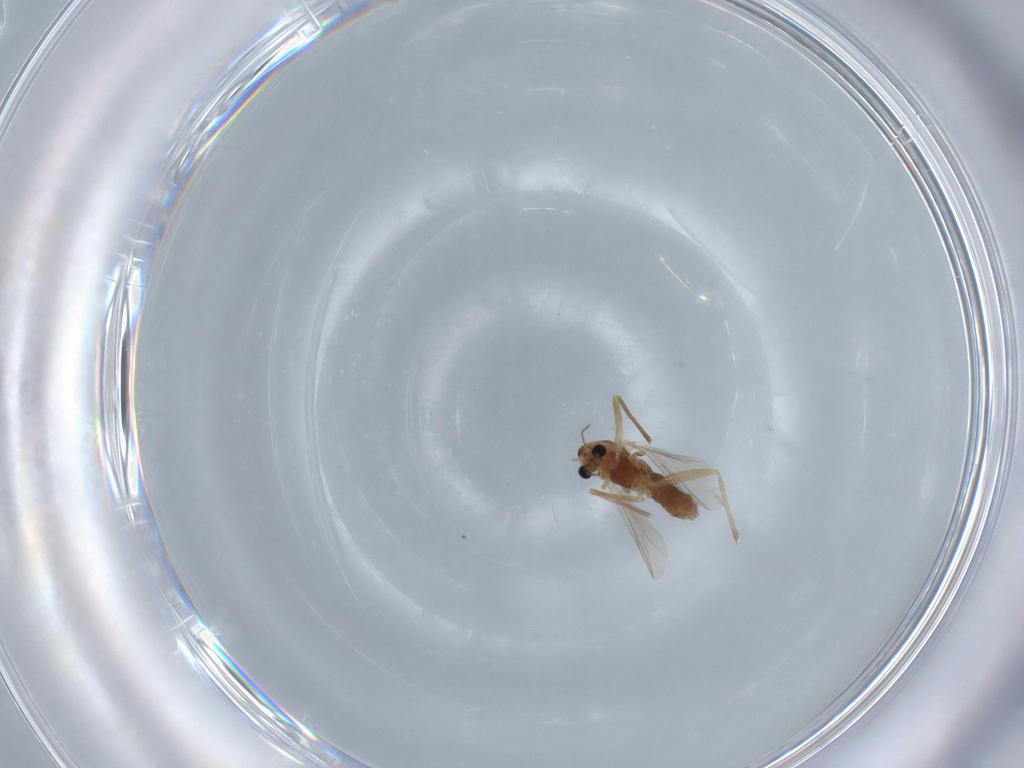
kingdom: Animalia
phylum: Arthropoda
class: Insecta
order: Diptera
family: Chironomidae
